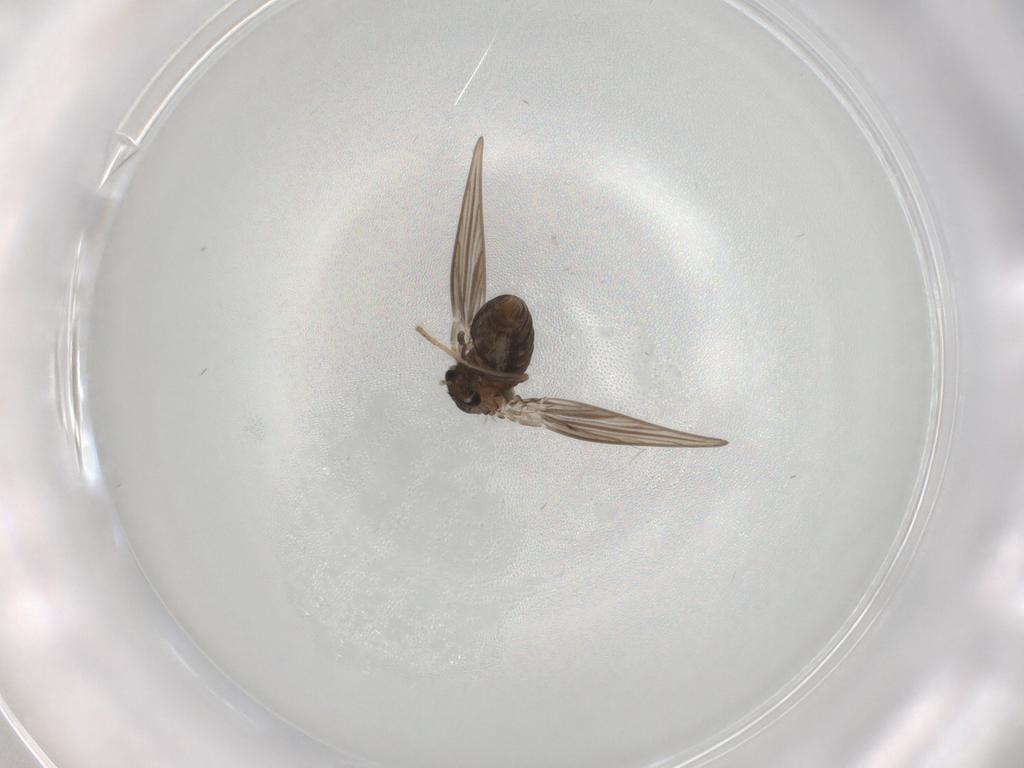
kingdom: Animalia
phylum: Arthropoda
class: Insecta
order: Diptera
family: Psychodidae
